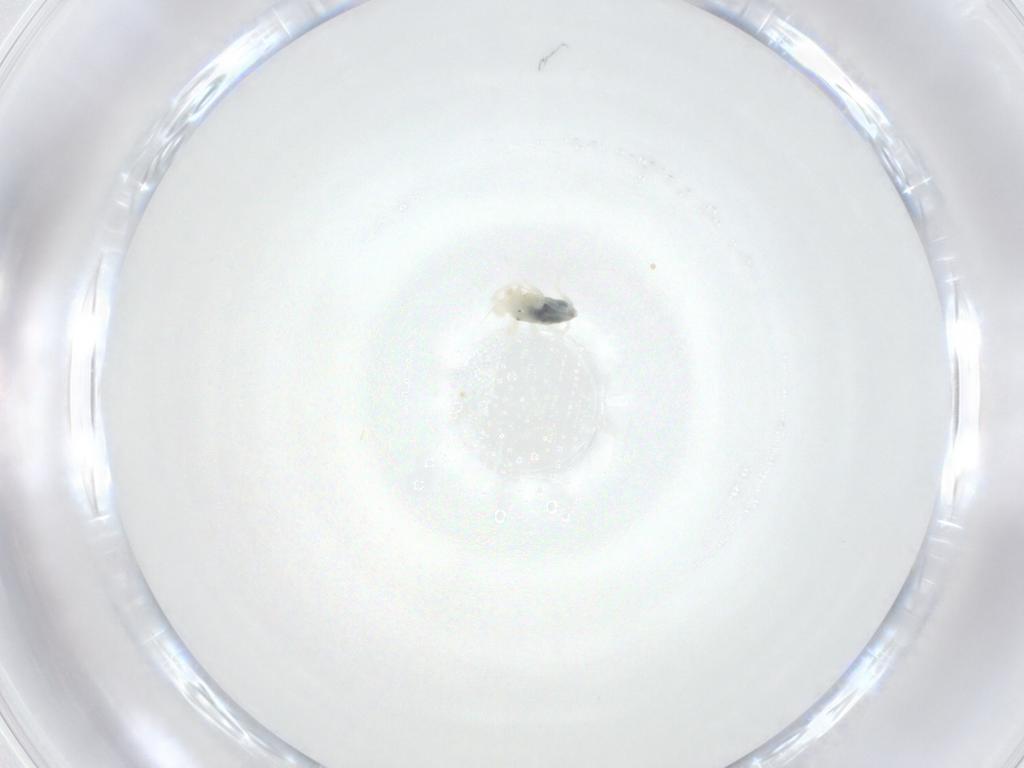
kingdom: Animalia
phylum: Arthropoda
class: Arachnida
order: Trombidiformes
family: Anystidae
